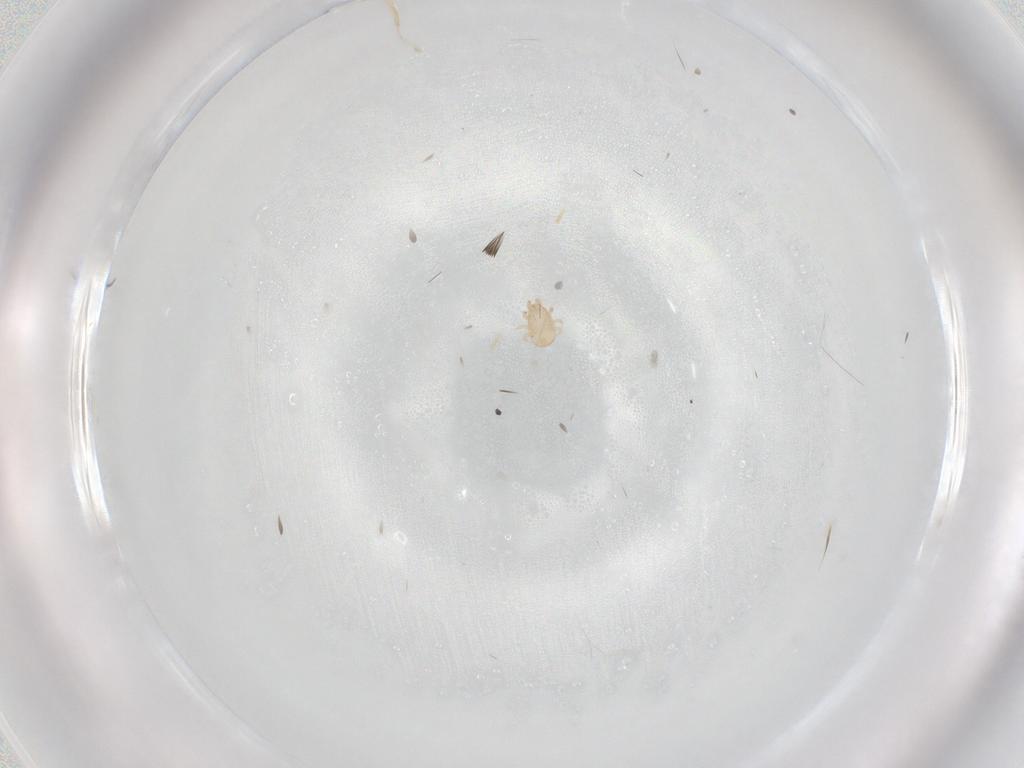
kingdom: Animalia
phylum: Arthropoda
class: Arachnida
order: Mesostigmata
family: Ascidae
